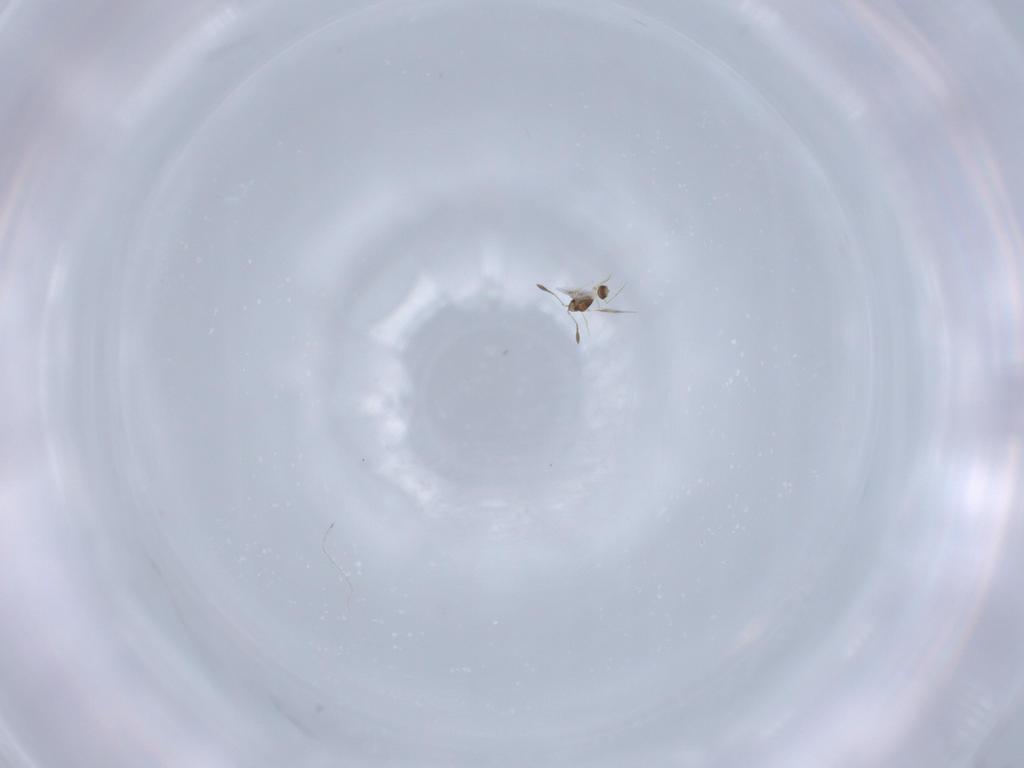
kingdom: Animalia
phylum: Arthropoda
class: Insecta
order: Hymenoptera
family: Mymarommatidae
